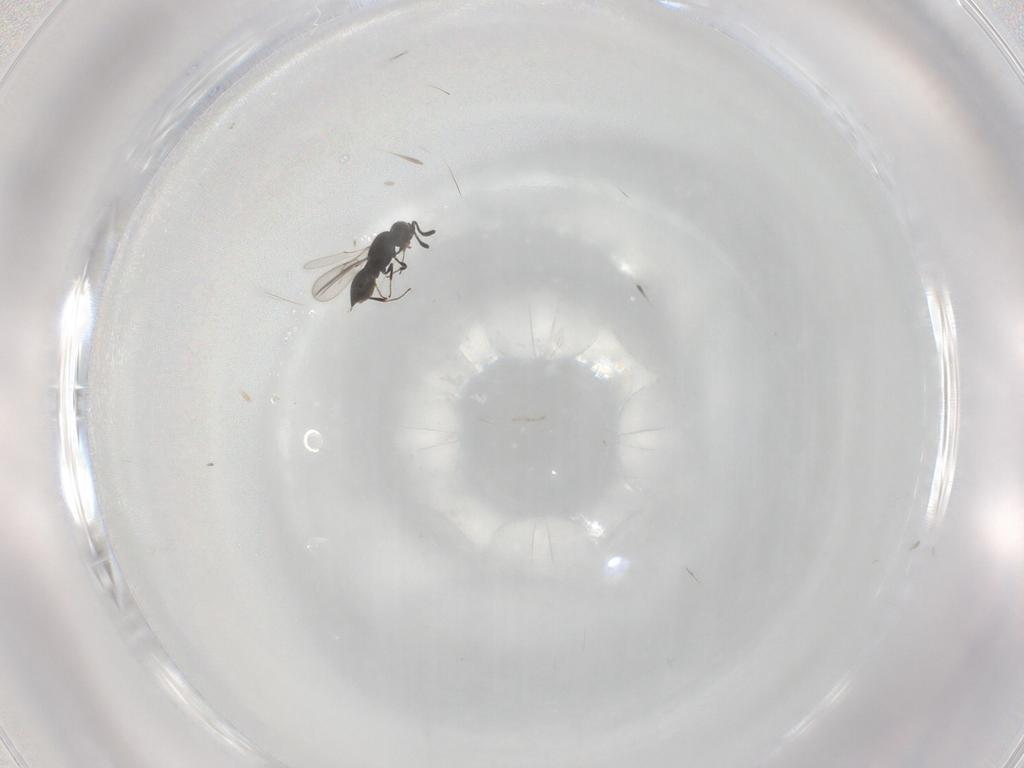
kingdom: Animalia
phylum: Arthropoda
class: Insecta
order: Hymenoptera
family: Scelionidae
